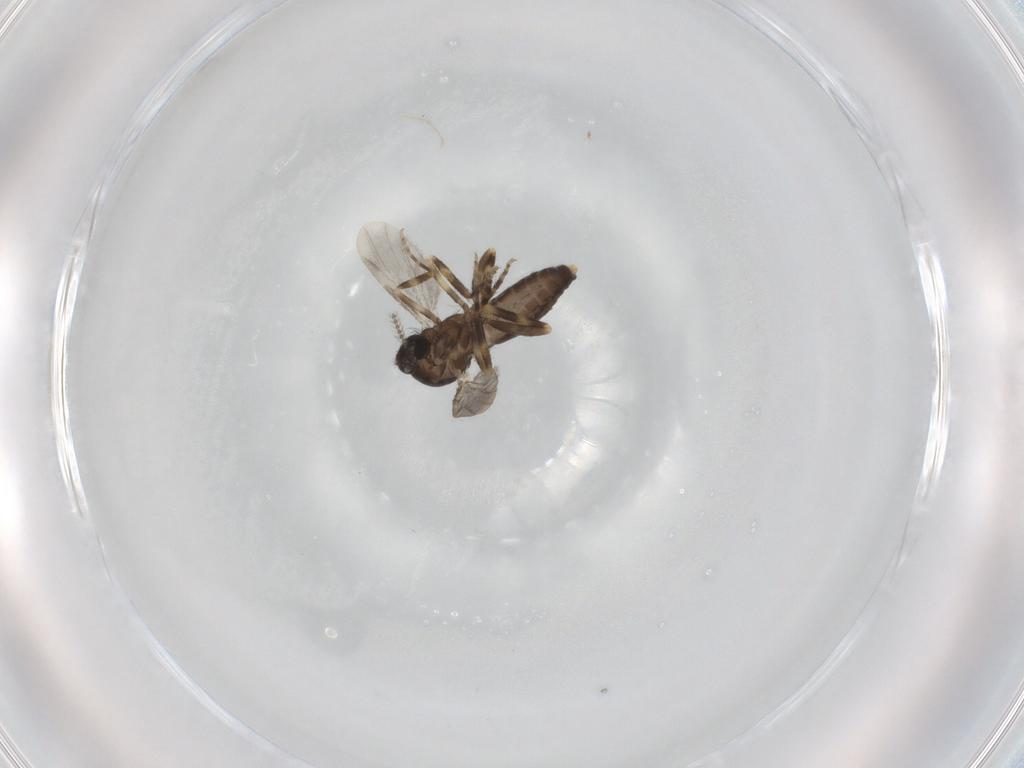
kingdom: Animalia
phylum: Arthropoda
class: Insecta
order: Diptera
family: Ceratopogonidae
